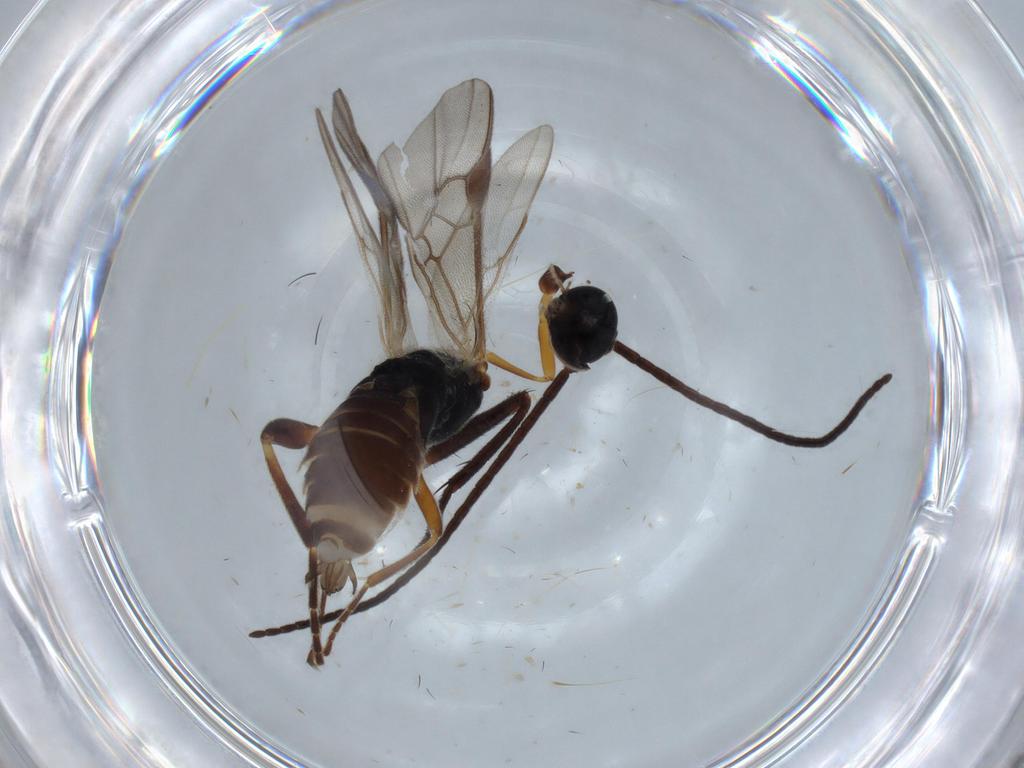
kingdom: Animalia
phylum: Arthropoda
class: Insecta
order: Hymenoptera
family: Braconidae
